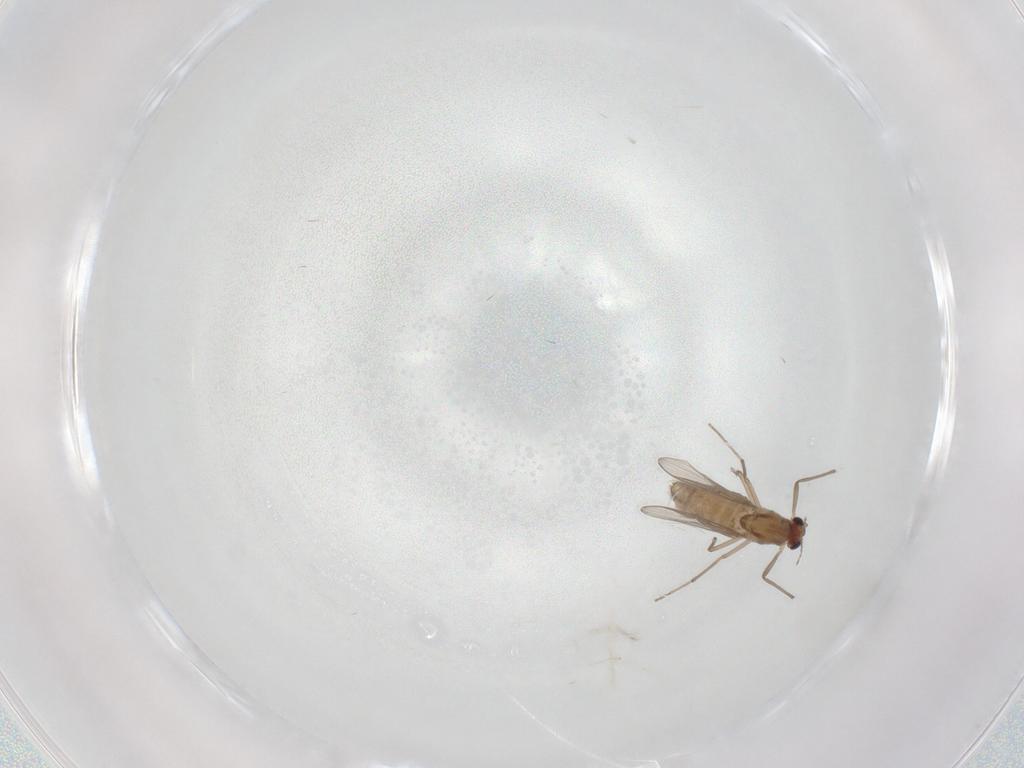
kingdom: Animalia
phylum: Arthropoda
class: Insecta
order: Diptera
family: Chironomidae
